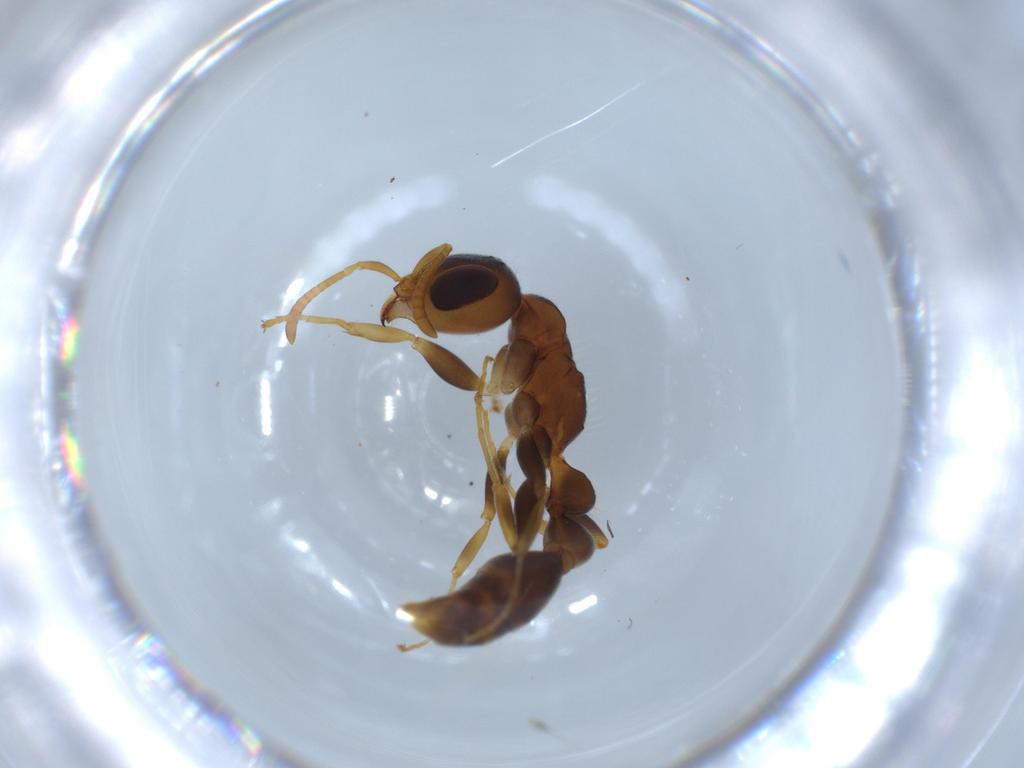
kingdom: Animalia
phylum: Arthropoda
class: Insecta
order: Hymenoptera
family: Formicidae
